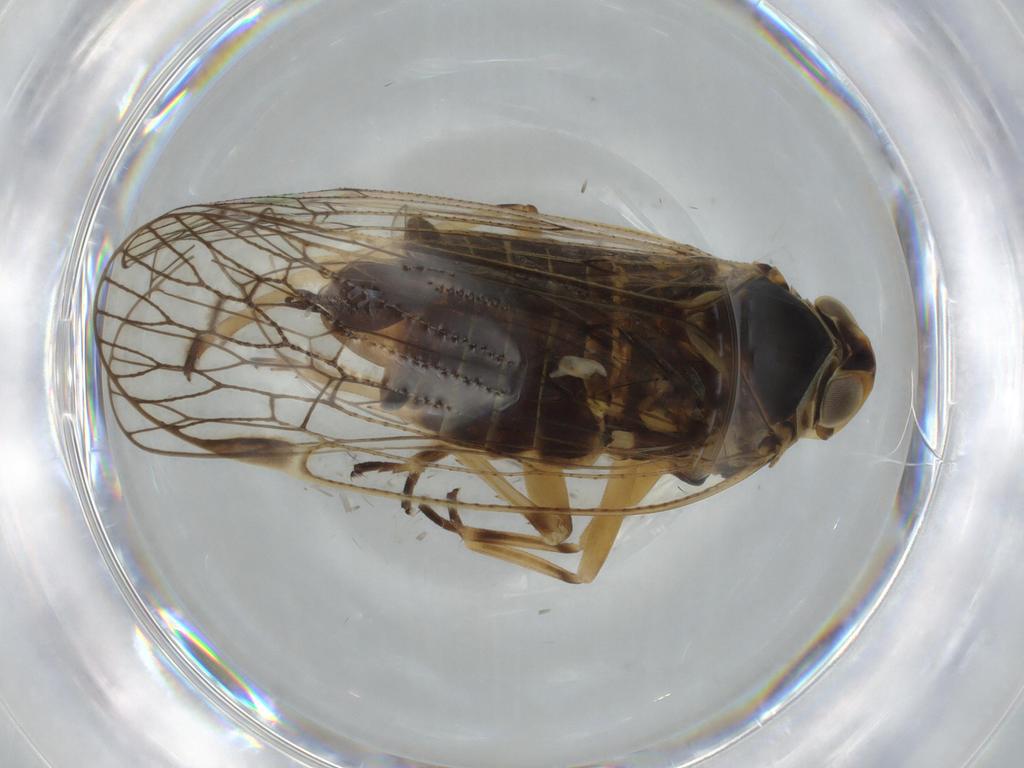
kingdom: Animalia
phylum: Arthropoda
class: Insecta
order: Hemiptera
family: Cixiidae
